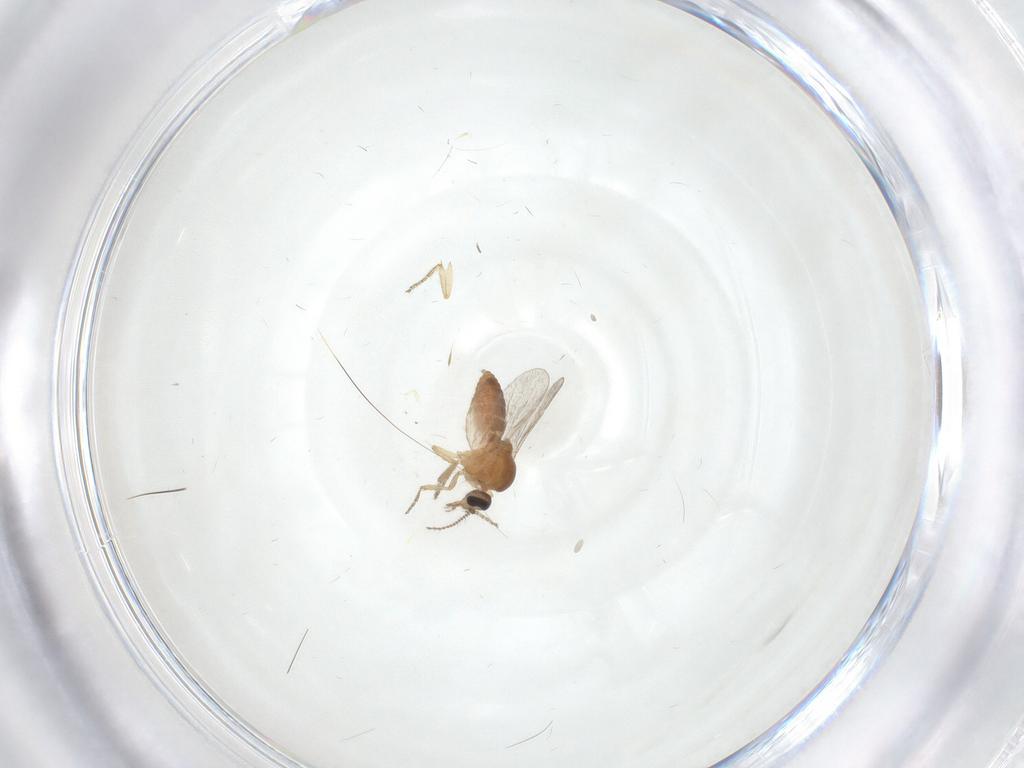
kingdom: Animalia
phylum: Arthropoda
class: Insecta
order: Diptera
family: Ceratopogonidae
